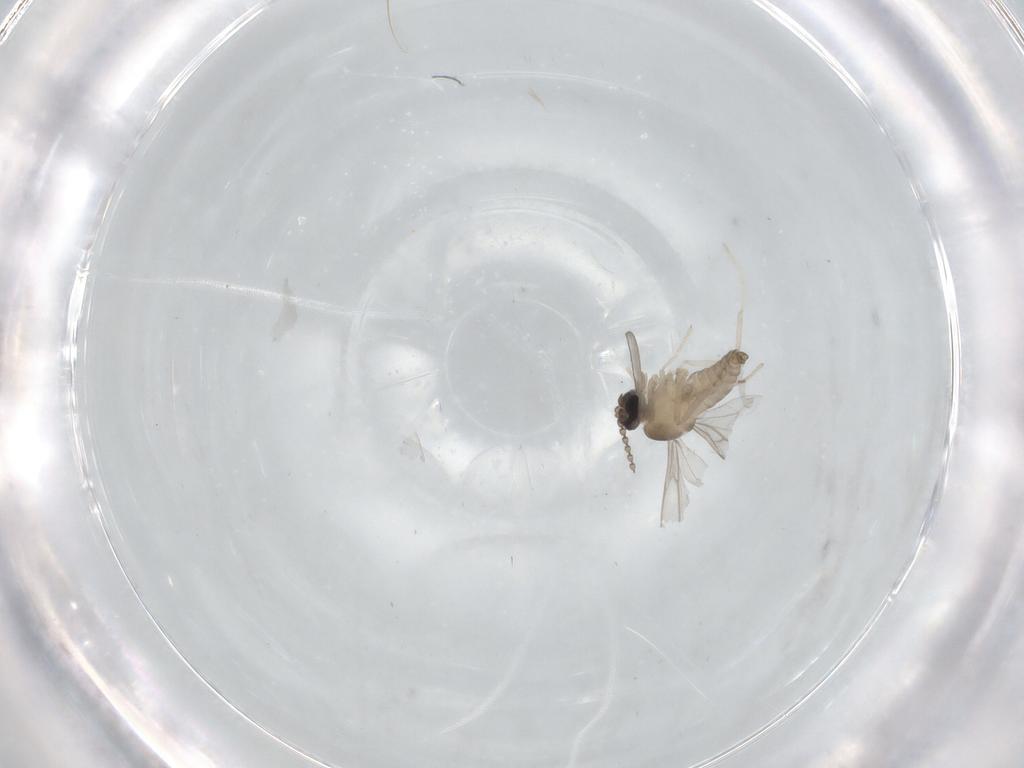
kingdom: Animalia
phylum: Arthropoda
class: Insecta
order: Diptera
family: Cecidomyiidae
